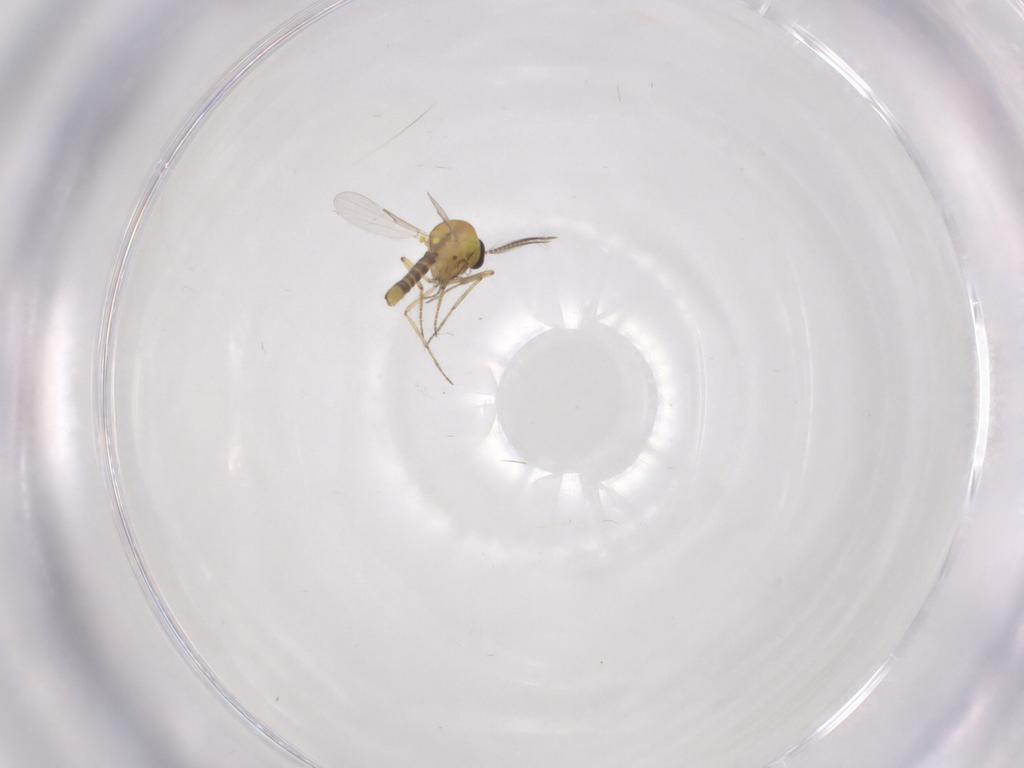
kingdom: Animalia
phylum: Arthropoda
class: Insecta
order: Diptera
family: Ceratopogonidae
